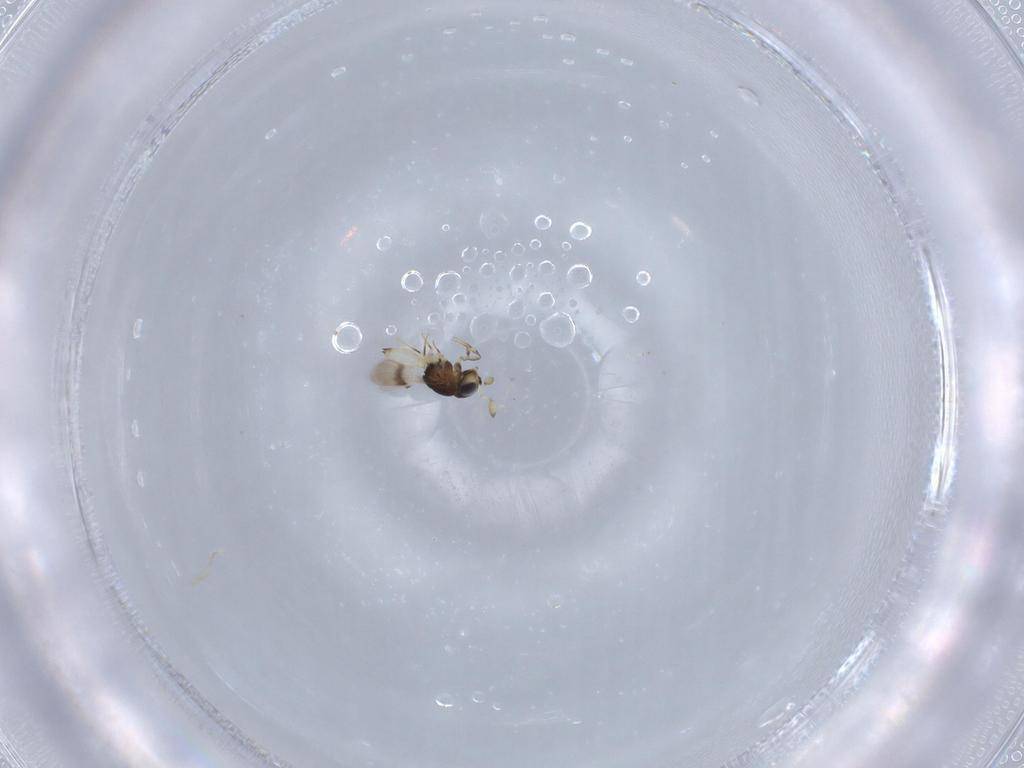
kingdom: Animalia
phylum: Arthropoda
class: Insecta
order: Hymenoptera
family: Scelionidae
